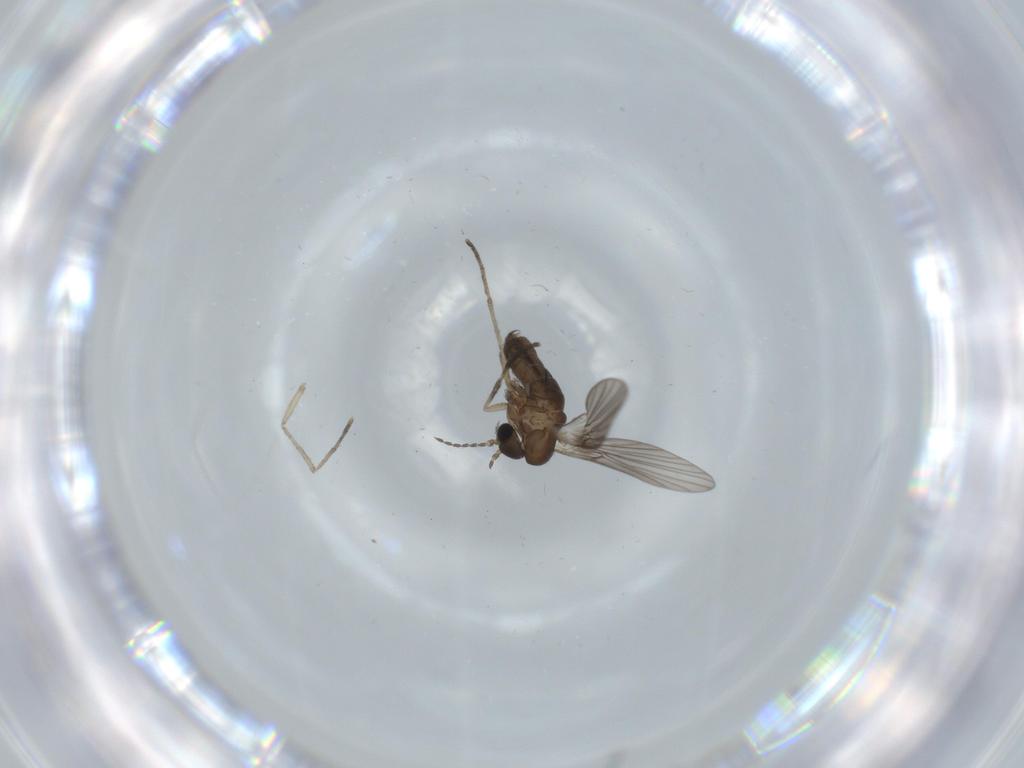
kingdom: Animalia
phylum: Arthropoda
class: Insecta
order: Diptera
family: Psychodidae
